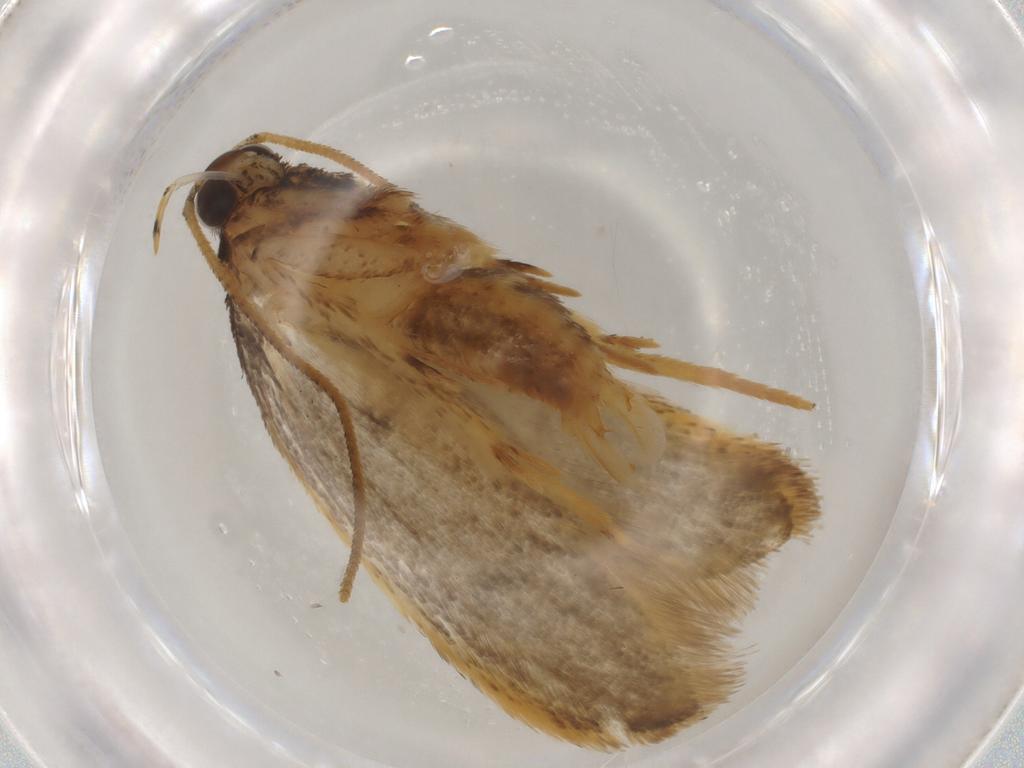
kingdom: Animalia
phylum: Arthropoda
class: Insecta
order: Lepidoptera
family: Gelechiidae
